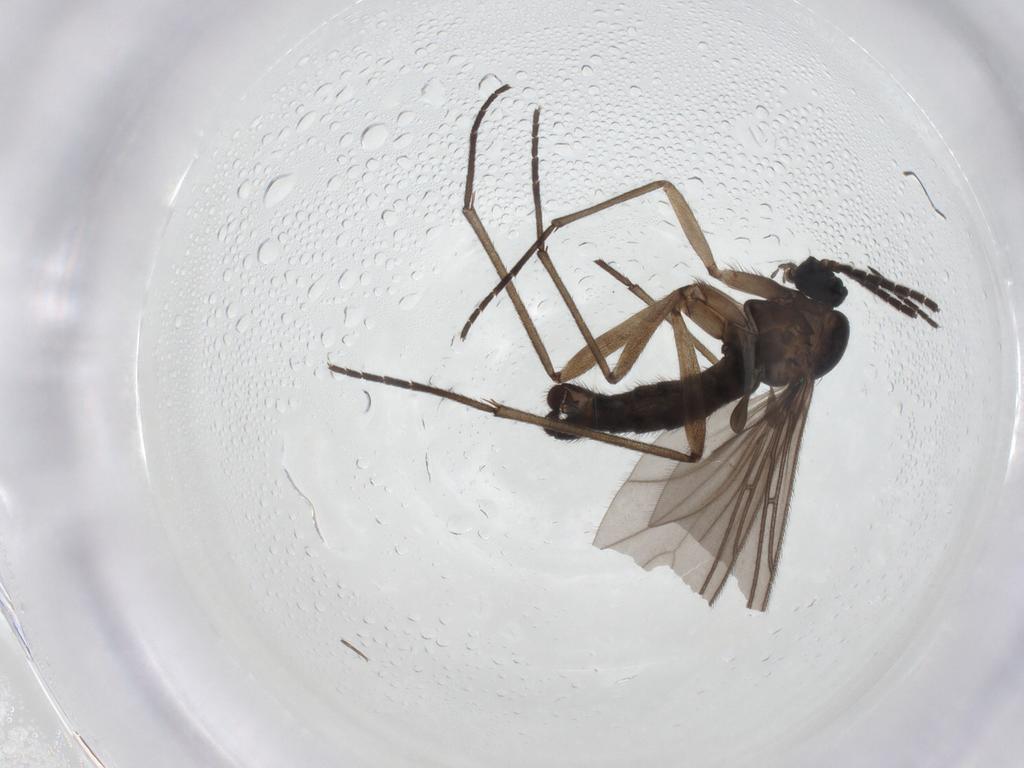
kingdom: Animalia
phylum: Arthropoda
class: Insecta
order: Diptera
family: Sciaridae
